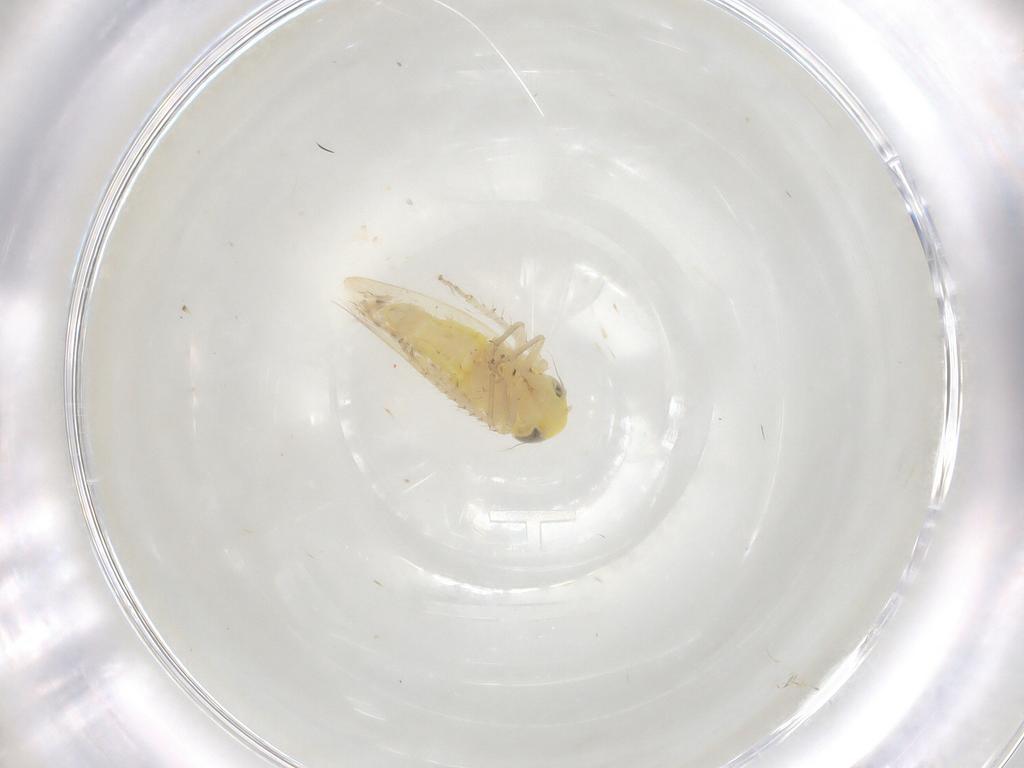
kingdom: Animalia
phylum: Arthropoda
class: Insecta
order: Hemiptera
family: Cicadellidae
